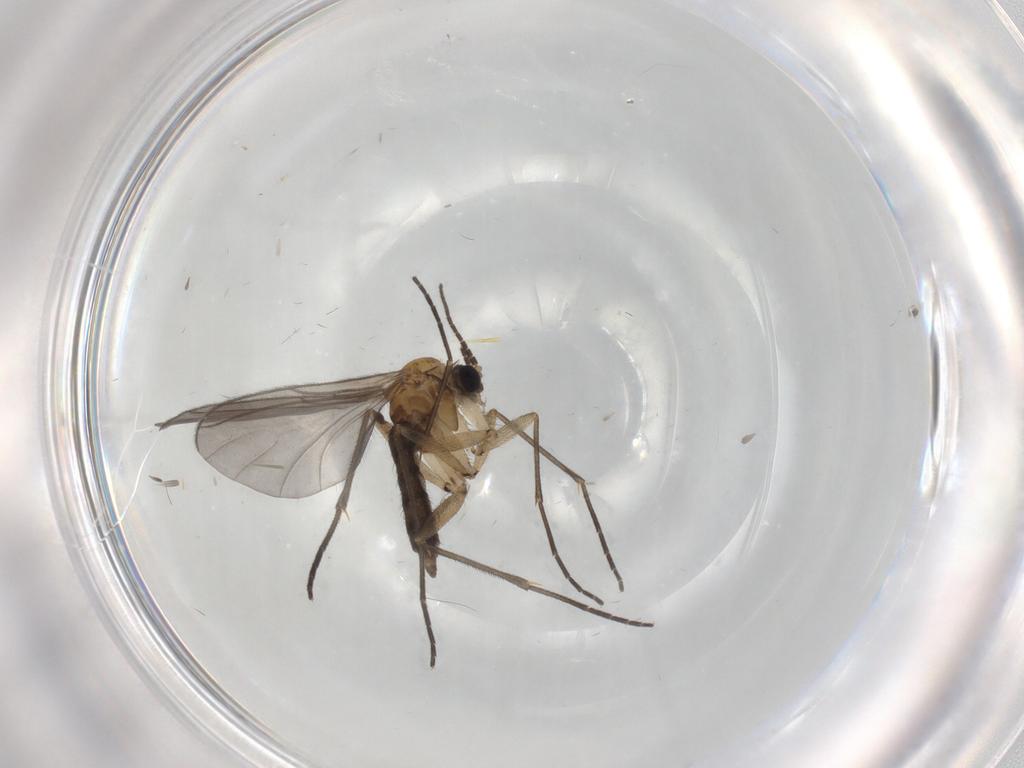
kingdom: Animalia
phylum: Arthropoda
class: Insecta
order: Diptera
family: Sciaridae
